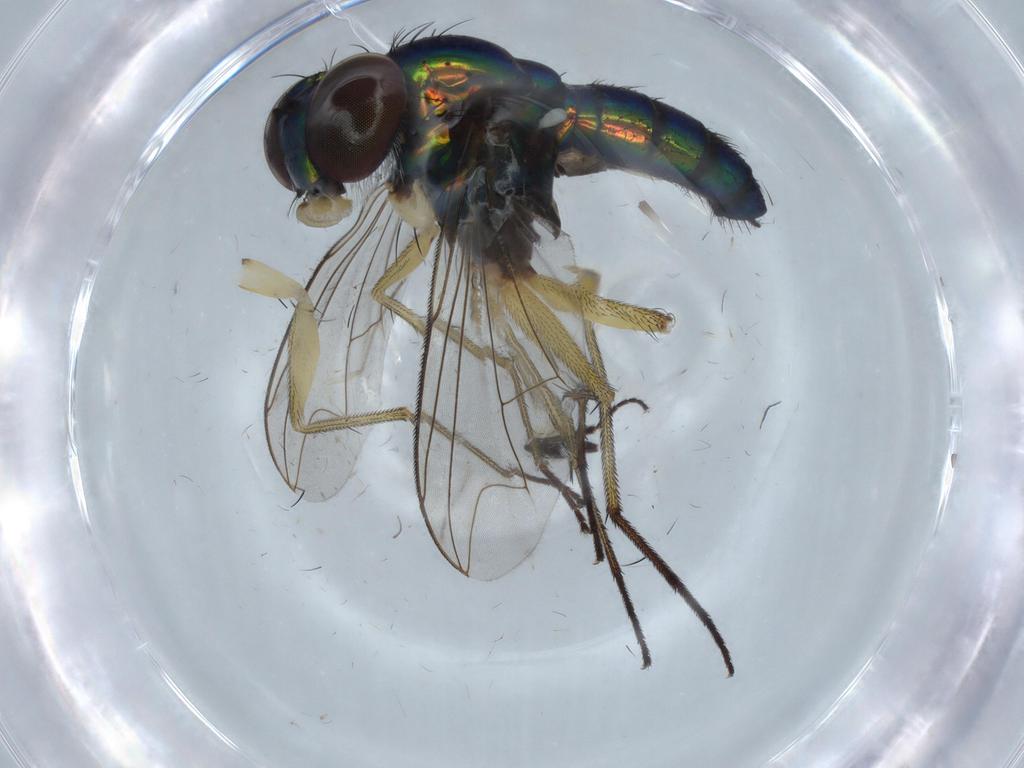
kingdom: Animalia
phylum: Arthropoda
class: Insecta
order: Diptera
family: Dolichopodidae
